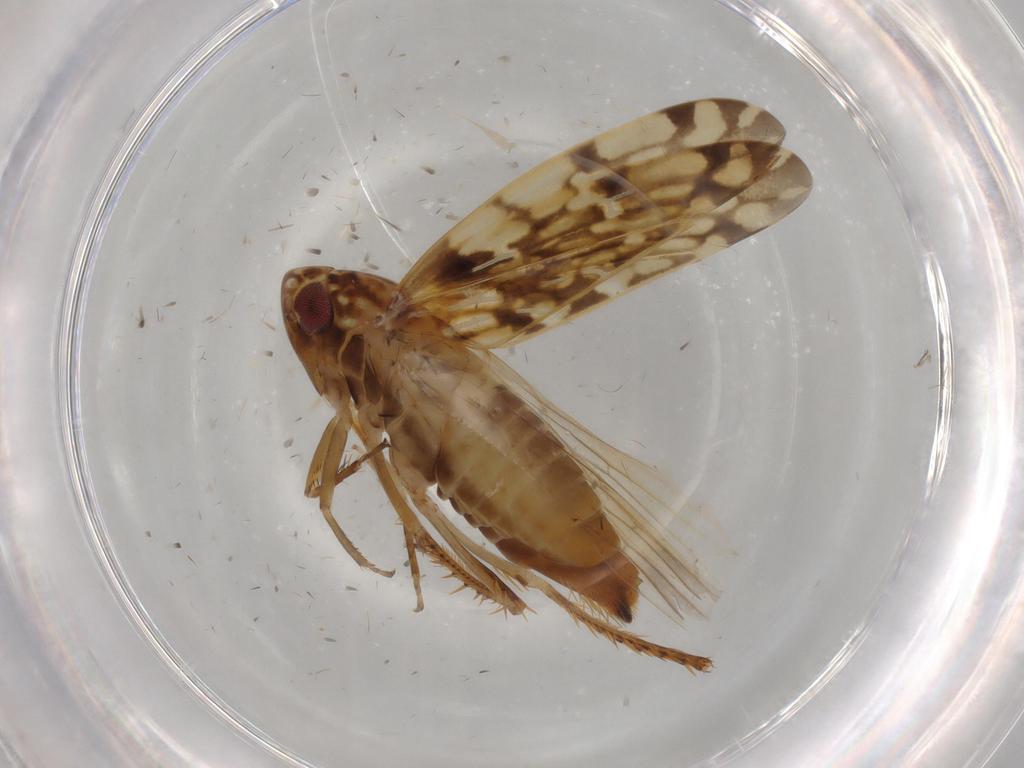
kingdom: Animalia
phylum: Arthropoda
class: Insecta
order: Hemiptera
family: Cicadellidae
